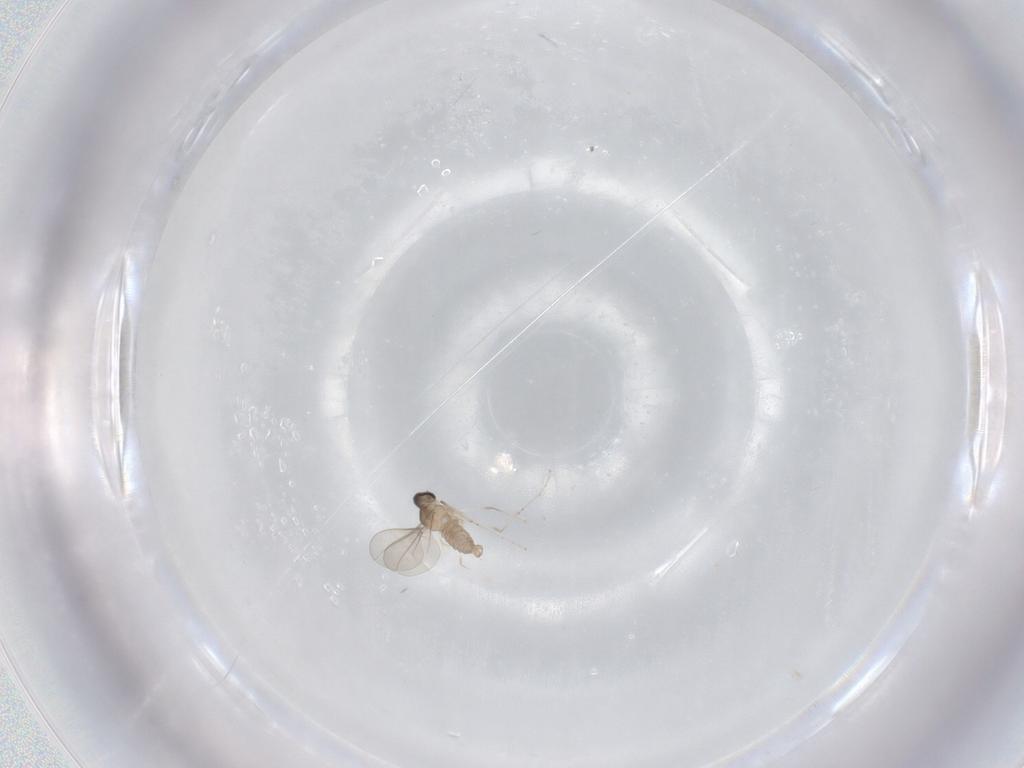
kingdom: Animalia
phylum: Arthropoda
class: Insecta
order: Diptera
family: Cecidomyiidae
